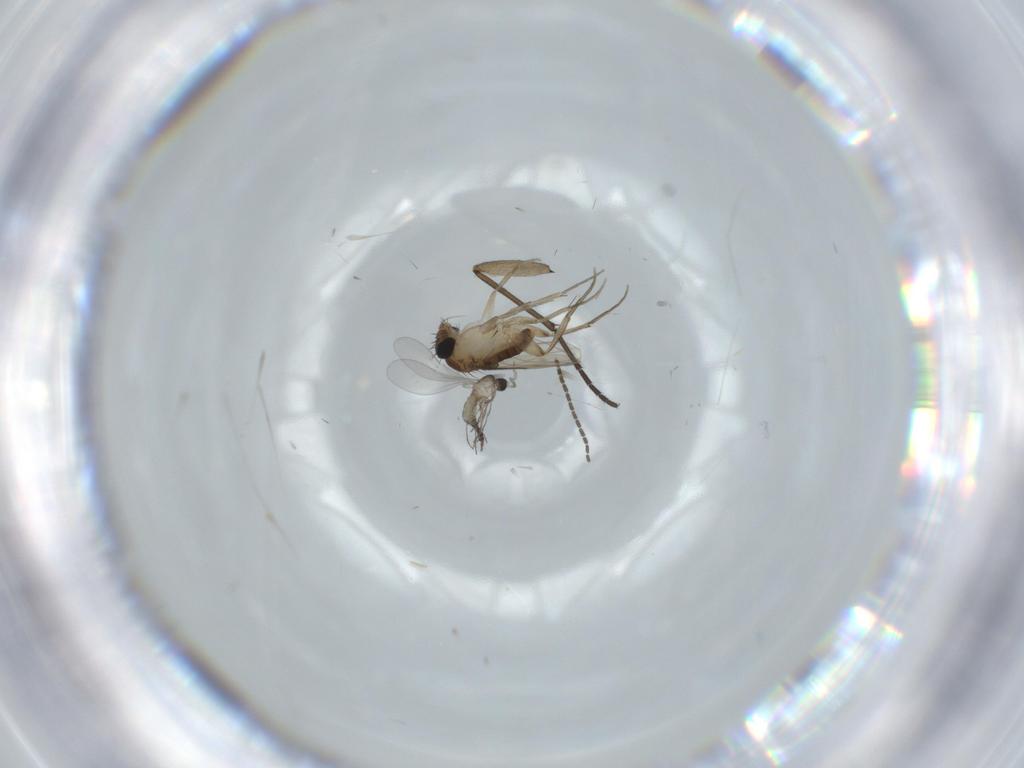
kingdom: Animalia
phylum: Arthropoda
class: Insecta
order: Diptera
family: Cecidomyiidae
